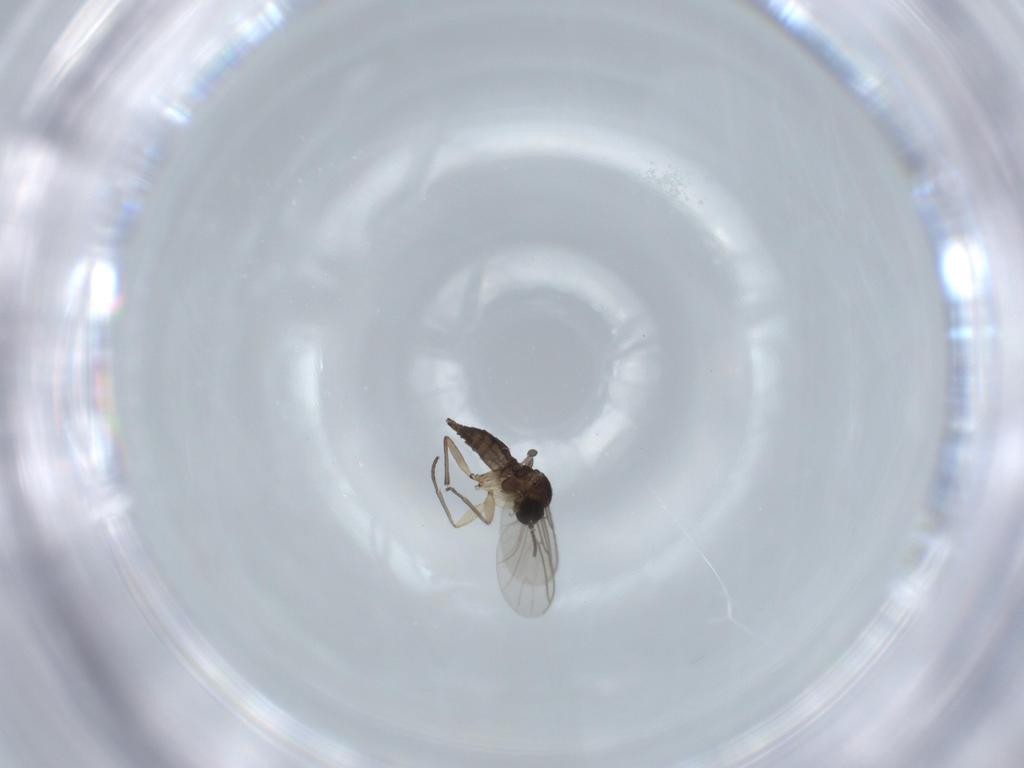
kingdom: Animalia
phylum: Arthropoda
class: Insecta
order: Diptera
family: Sciaridae
